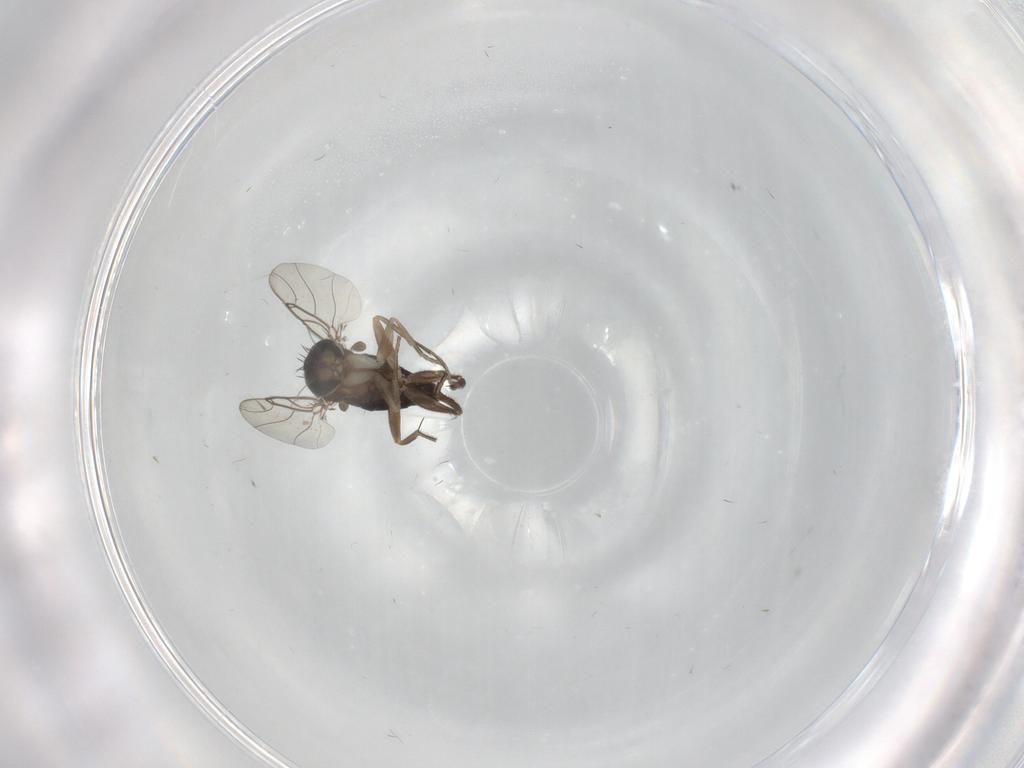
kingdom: Animalia
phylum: Arthropoda
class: Insecta
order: Diptera
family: Phoridae
